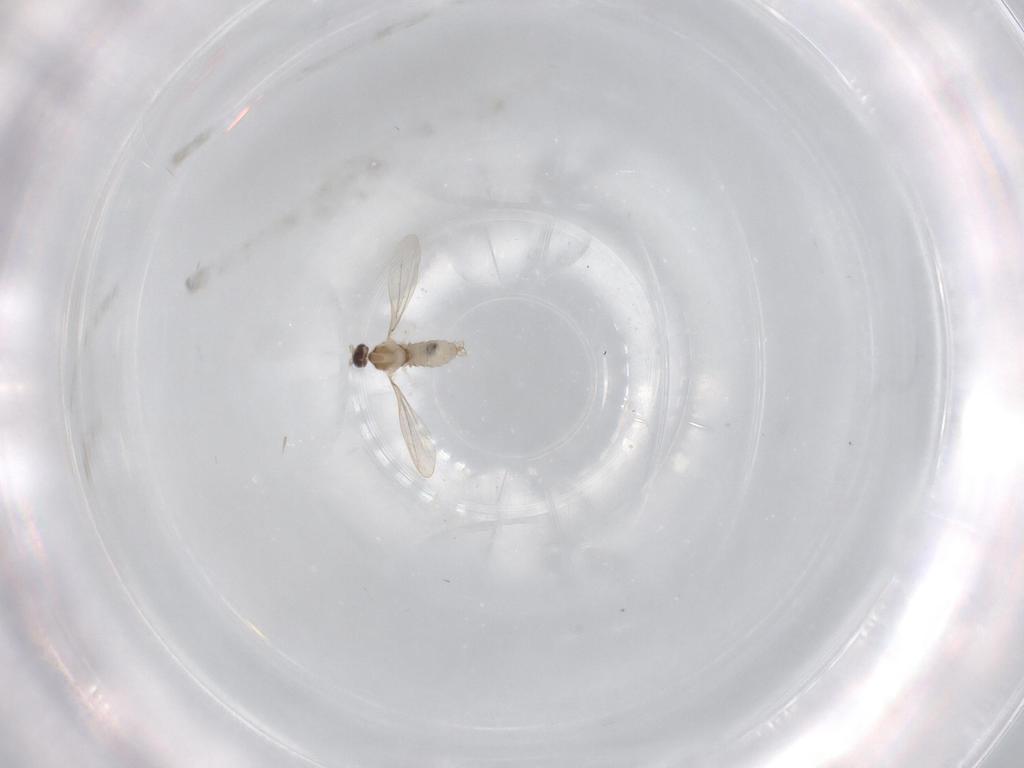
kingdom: Animalia
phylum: Arthropoda
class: Insecta
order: Diptera
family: Cecidomyiidae
